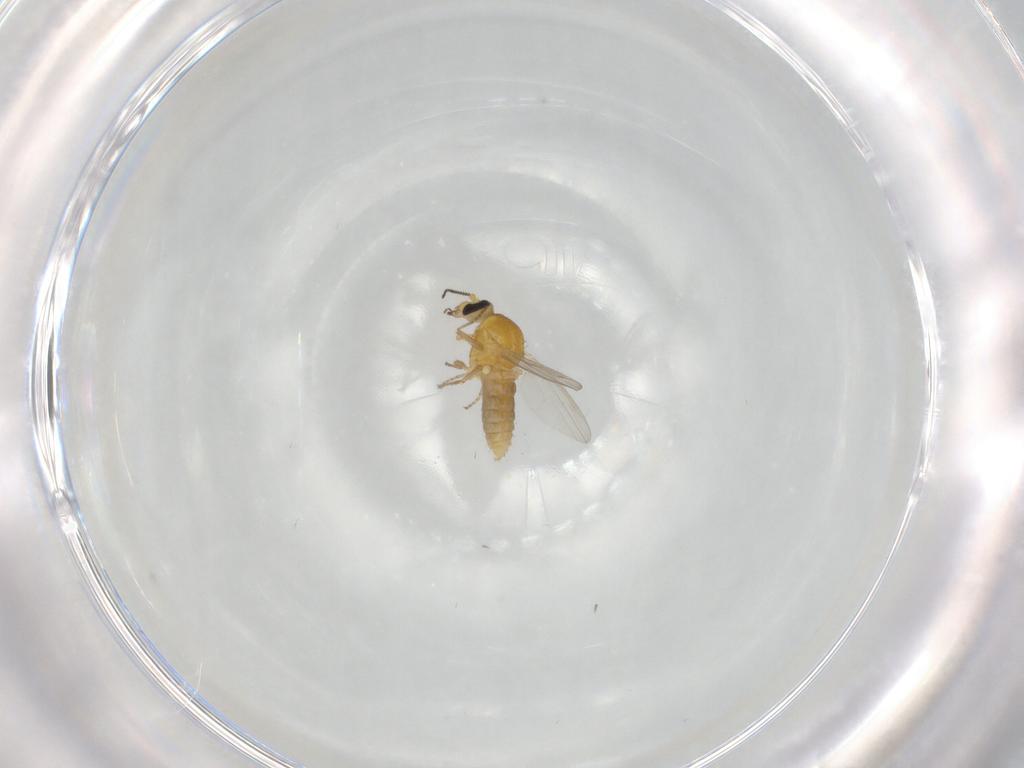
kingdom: Animalia
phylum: Arthropoda
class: Insecta
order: Diptera
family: Ceratopogonidae
